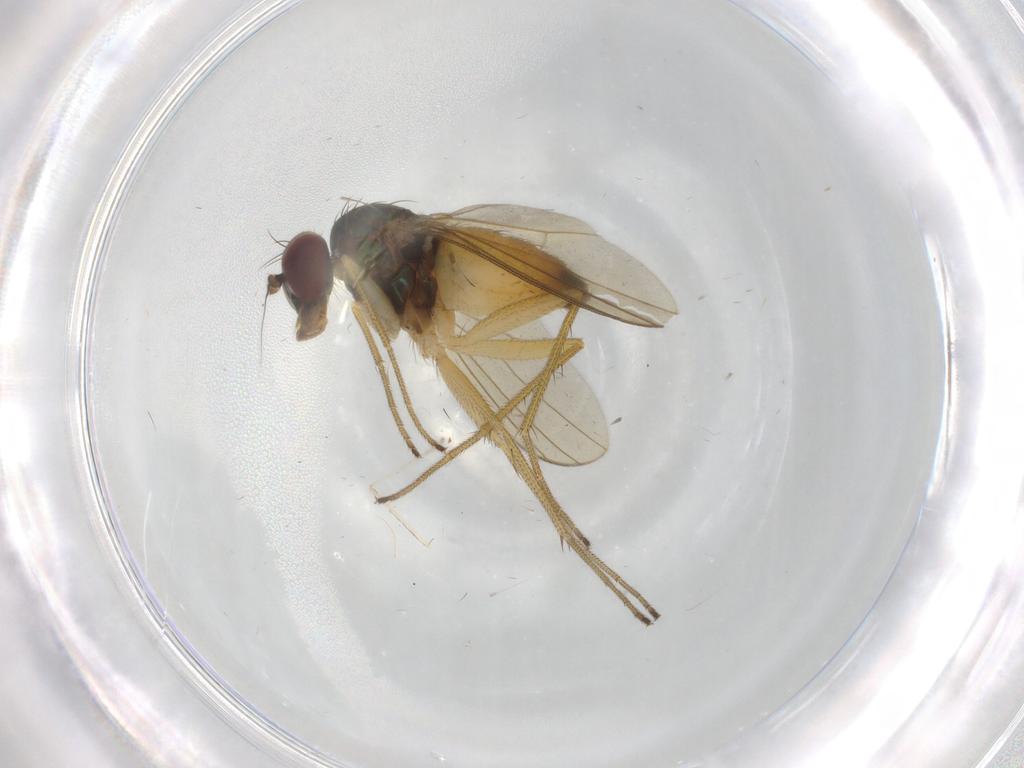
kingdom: Animalia
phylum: Arthropoda
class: Insecta
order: Diptera
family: Dolichopodidae
